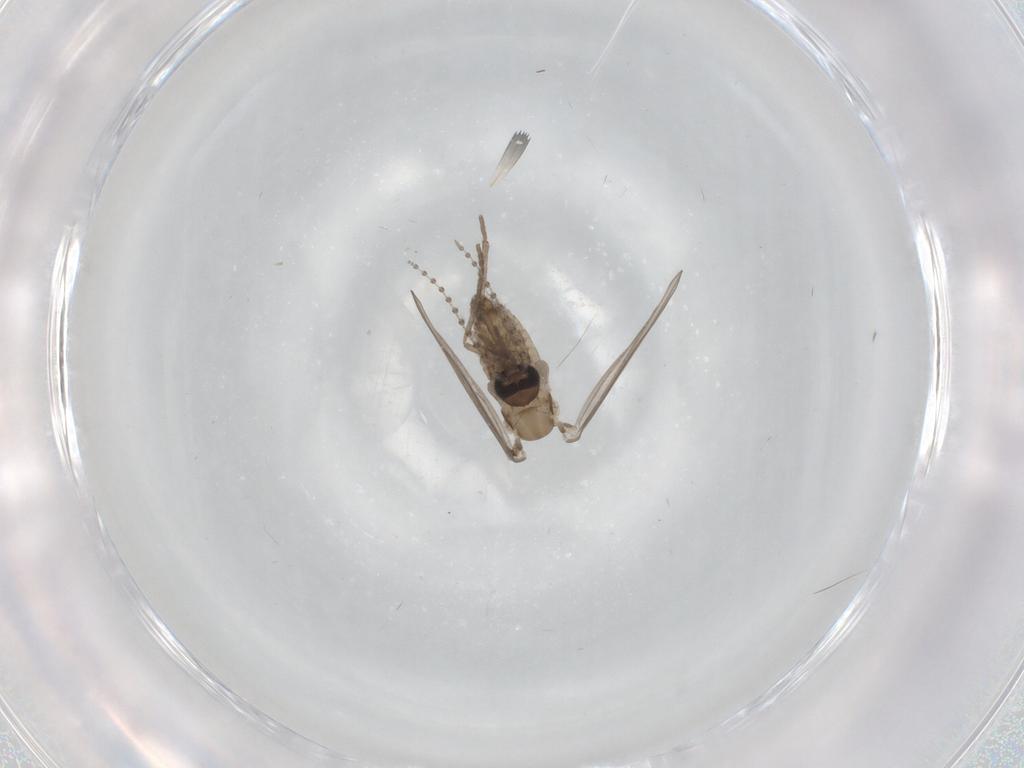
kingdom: Animalia
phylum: Arthropoda
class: Insecta
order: Diptera
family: Psychodidae
